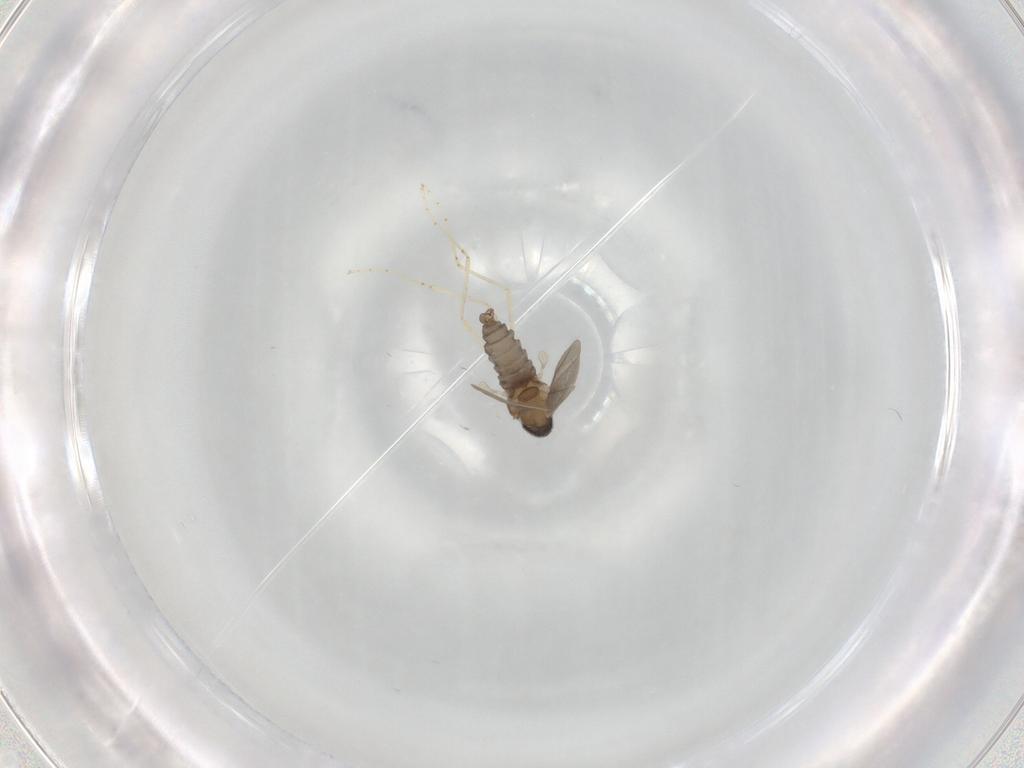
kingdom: Animalia
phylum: Arthropoda
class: Insecta
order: Diptera
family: Cecidomyiidae
